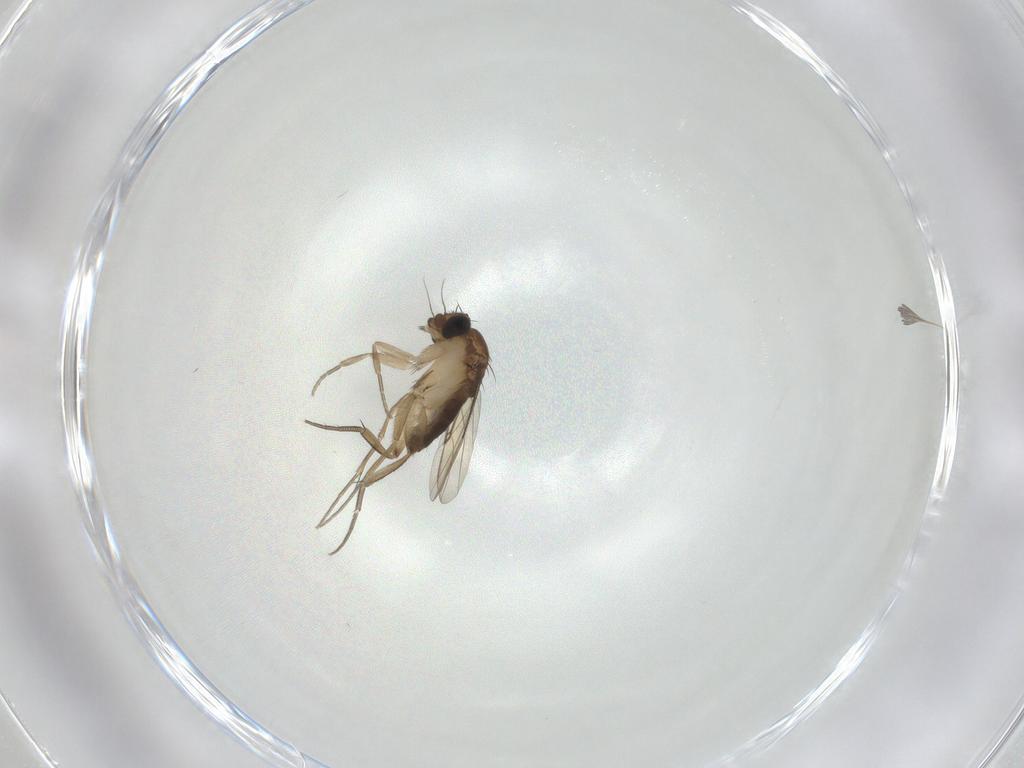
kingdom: Animalia
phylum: Arthropoda
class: Insecta
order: Diptera
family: Phoridae
